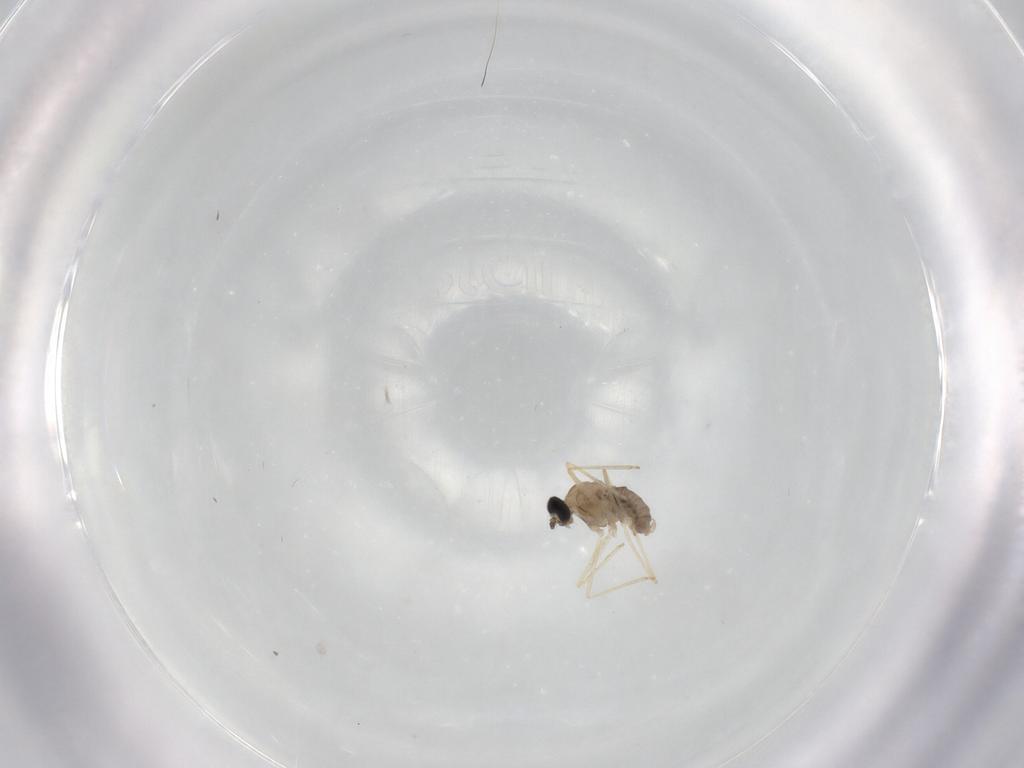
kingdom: Animalia
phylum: Arthropoda
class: Insecta
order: Diptera
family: Cecidomyiidae
